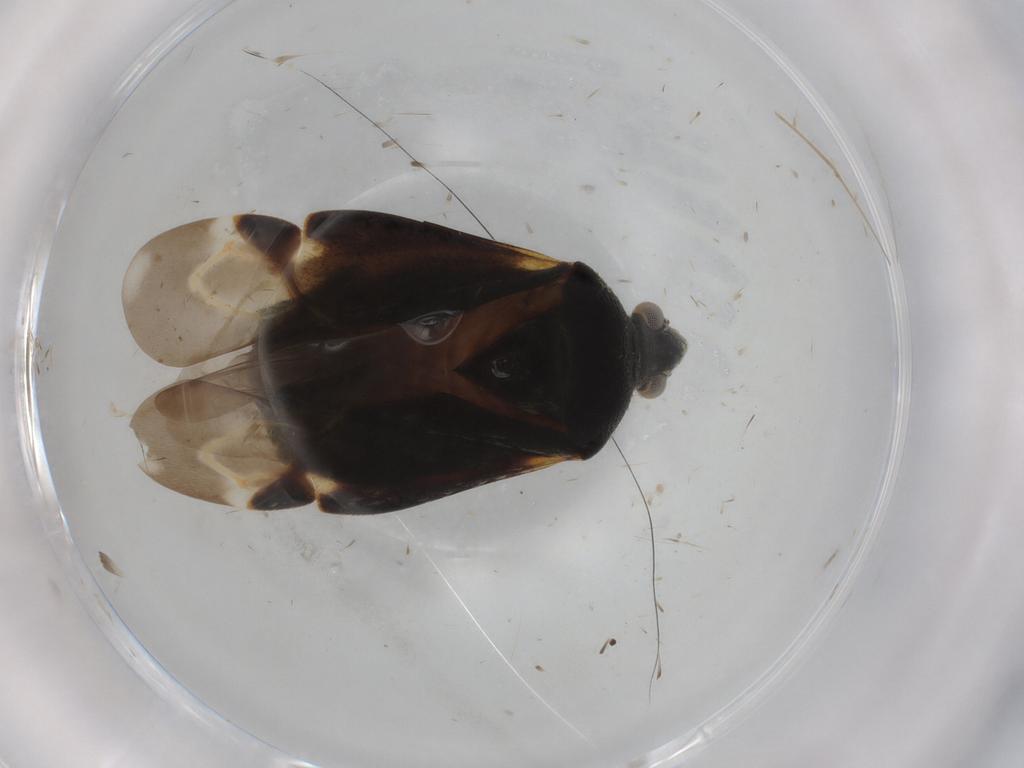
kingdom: Animalia
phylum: Arthropoda
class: Insecta
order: Hemiptera
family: Miridae
